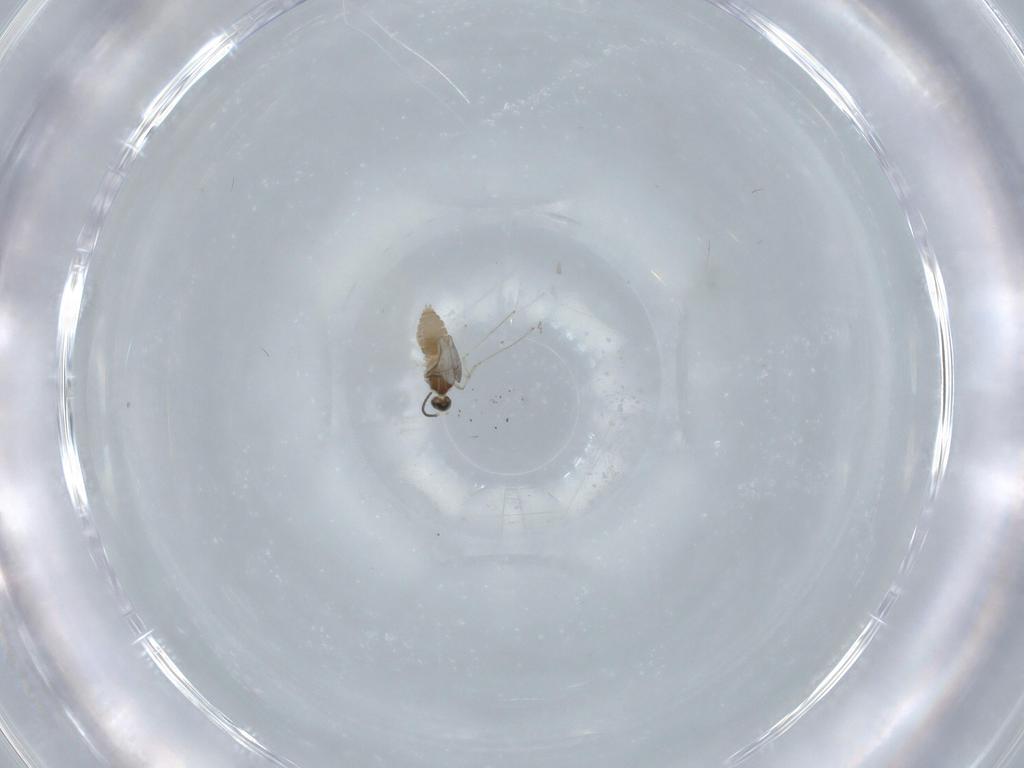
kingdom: Animalia
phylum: Arthropoda
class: Insecta
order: Diptera
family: Cecidomyiidae
